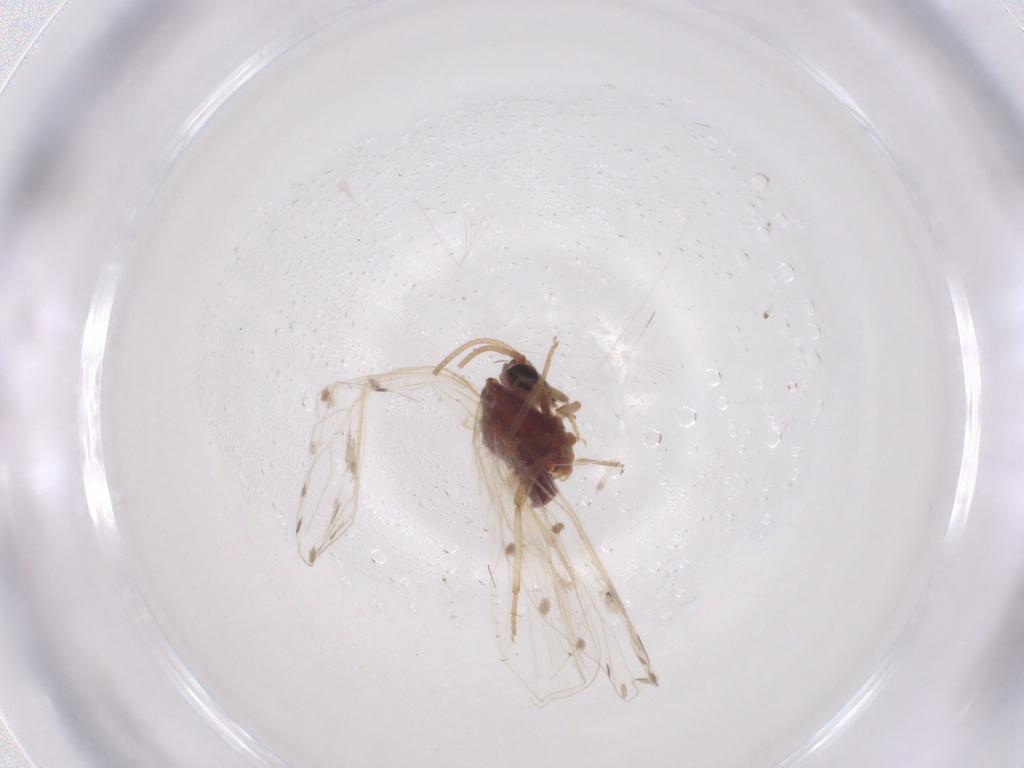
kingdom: Animalia
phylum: Arthropoda
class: Insecta
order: Neuroptera
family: Coniopterygidae
